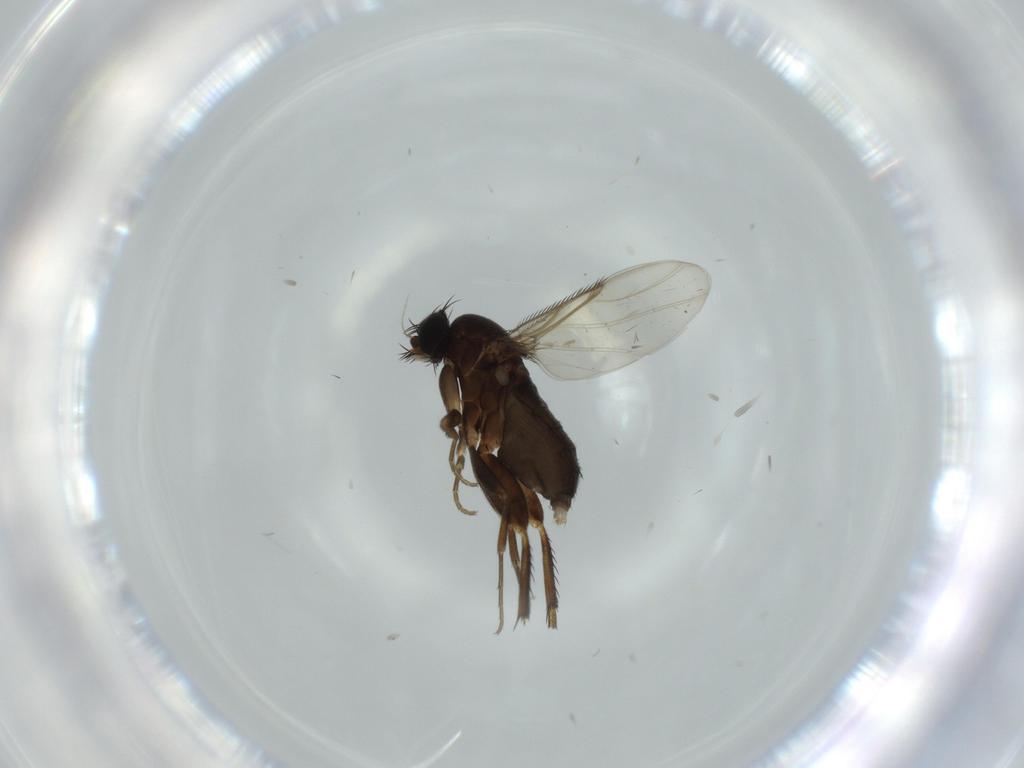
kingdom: Animalia
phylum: Arthropoda
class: Insecta
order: Diptera
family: Phoridae
